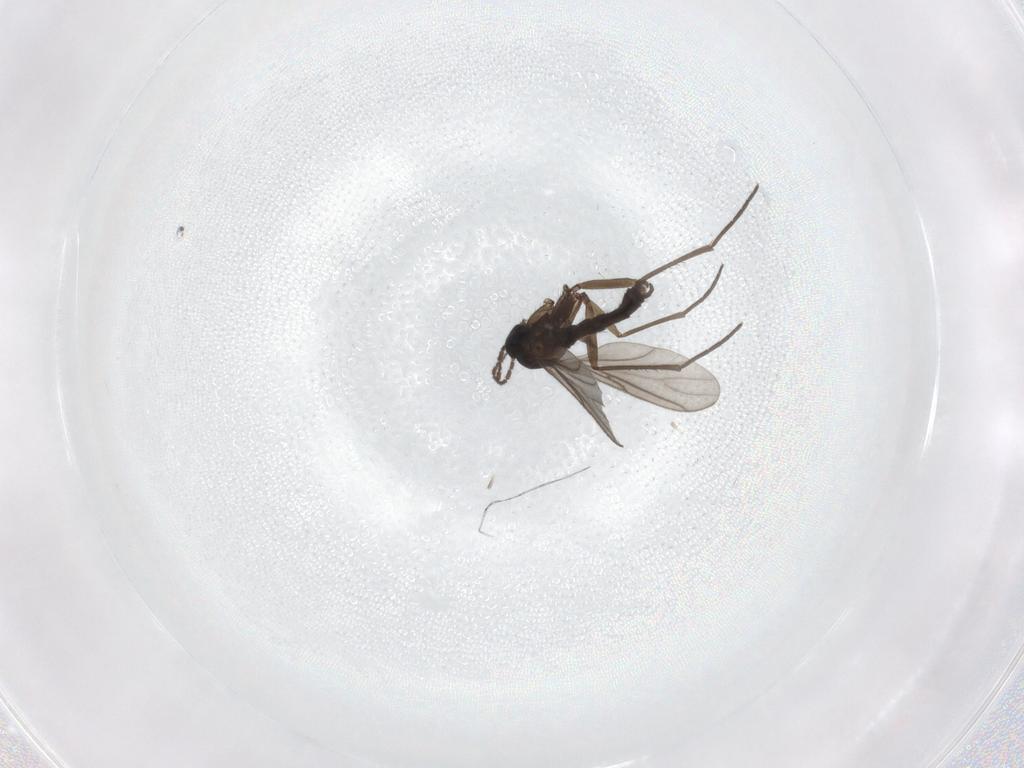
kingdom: Animalia
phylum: Arthropoda
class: Insecta
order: Diptera
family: Sciaridae
